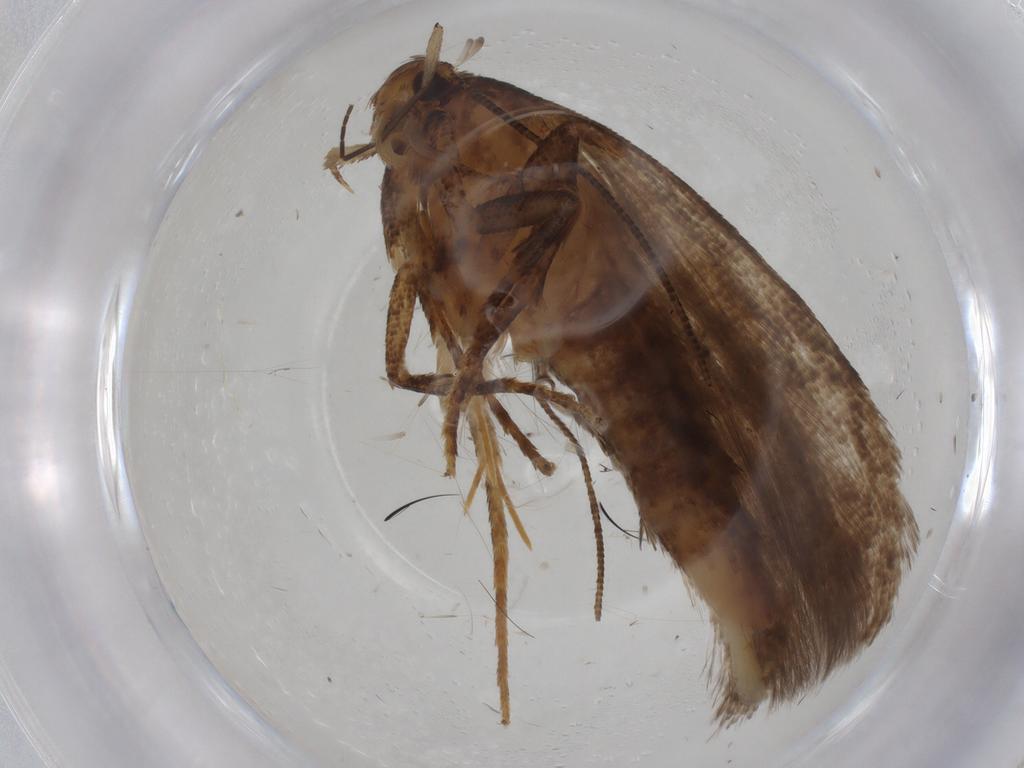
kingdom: Animalia
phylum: Arthropoda
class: Insecta
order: Lepidoptera
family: Gelechiidae
